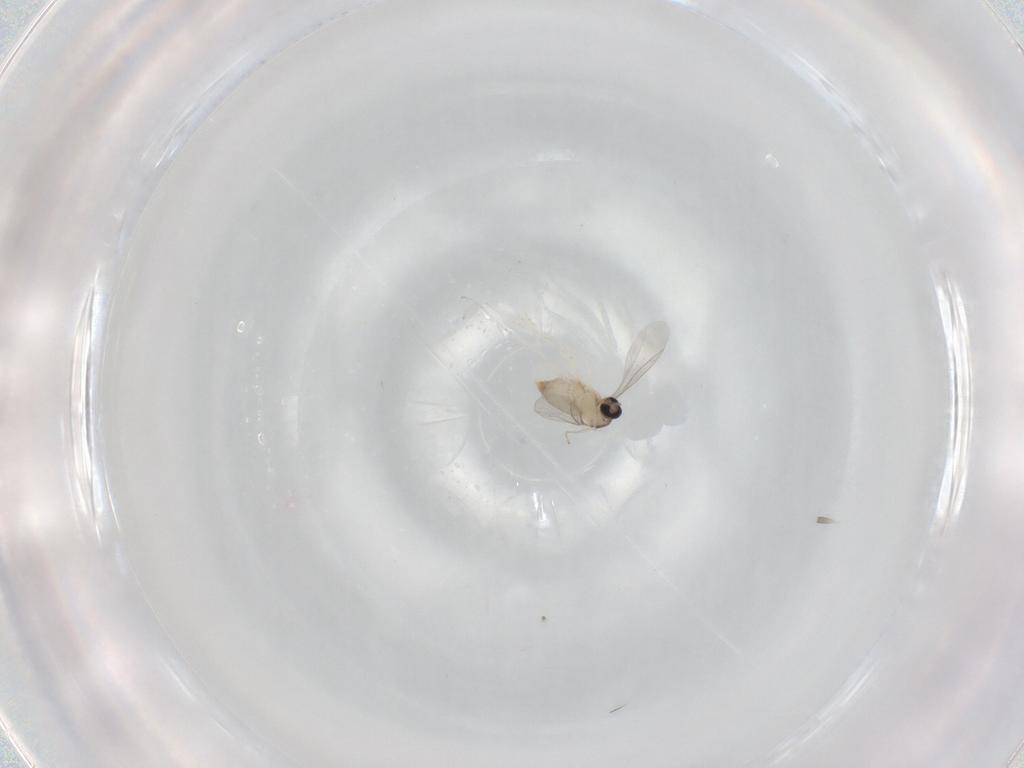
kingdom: Animalia
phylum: Arthropoda
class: Insecta
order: Diptera
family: Cecidomyiidae
